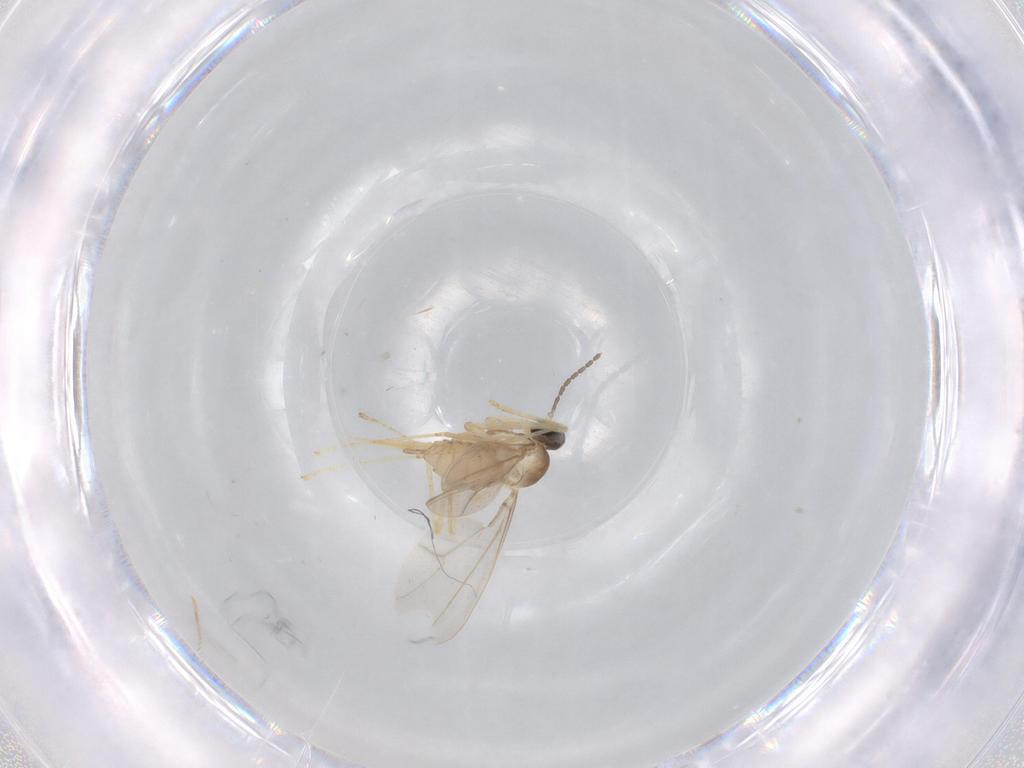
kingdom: Animalia
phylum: Arthropoda
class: Insecta
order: Diptera
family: Cecidomyiidae
